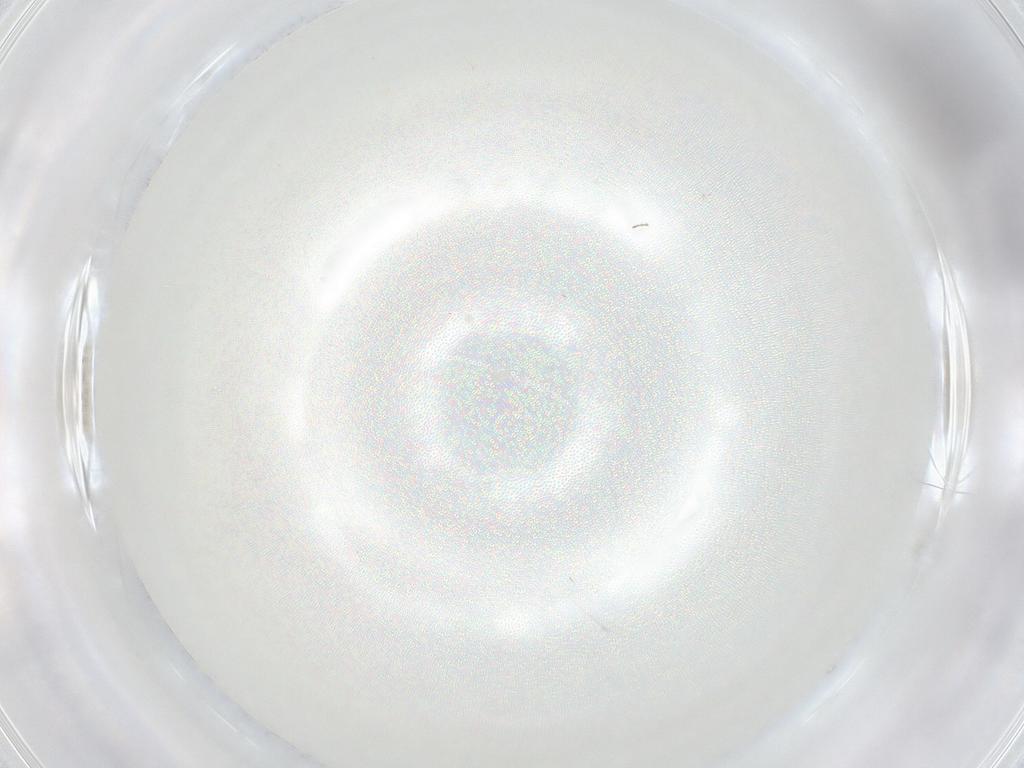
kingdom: Animalia
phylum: Arthropoda
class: Insecta
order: Diptera
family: Chironomidae
